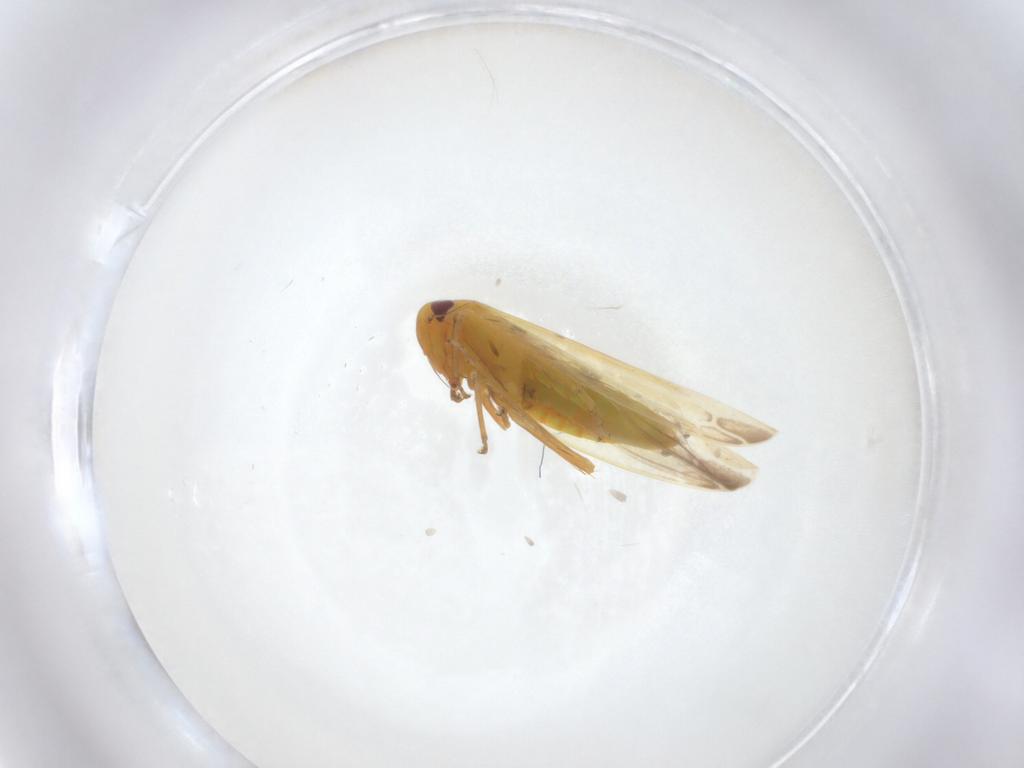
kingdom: Animalia
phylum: Arthropoda
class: Insecta
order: Hemiptera
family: Cicadellidae
